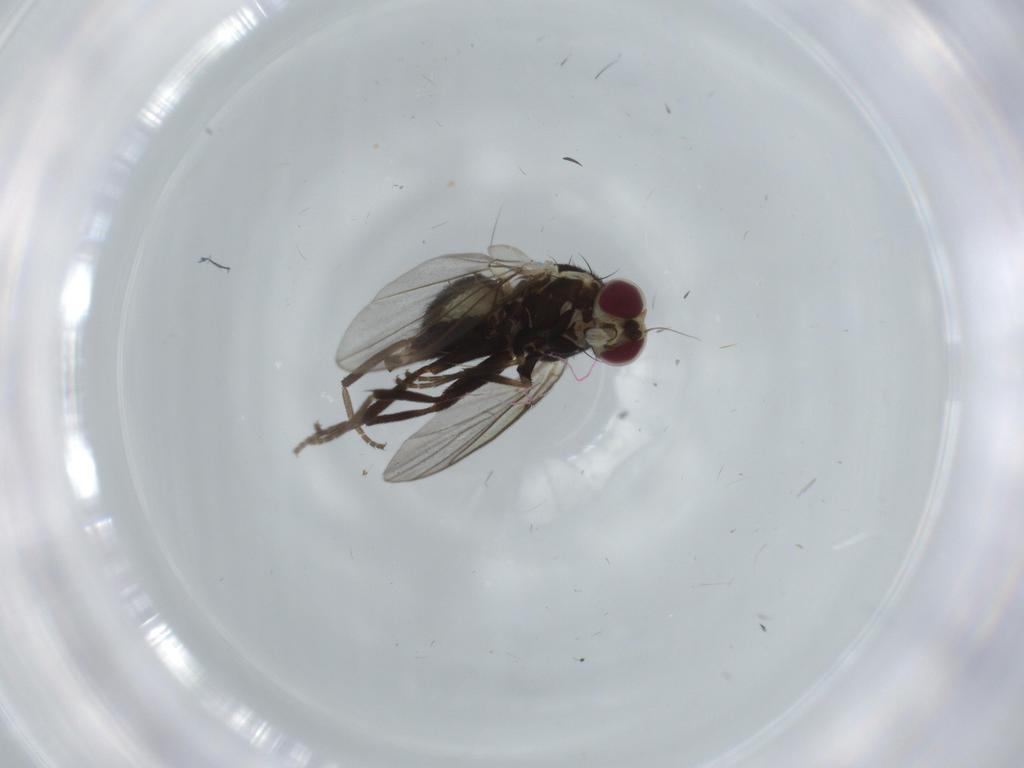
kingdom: Animalia
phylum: Arthropoda
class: Insecta
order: Diptera
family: Agromyzidae
